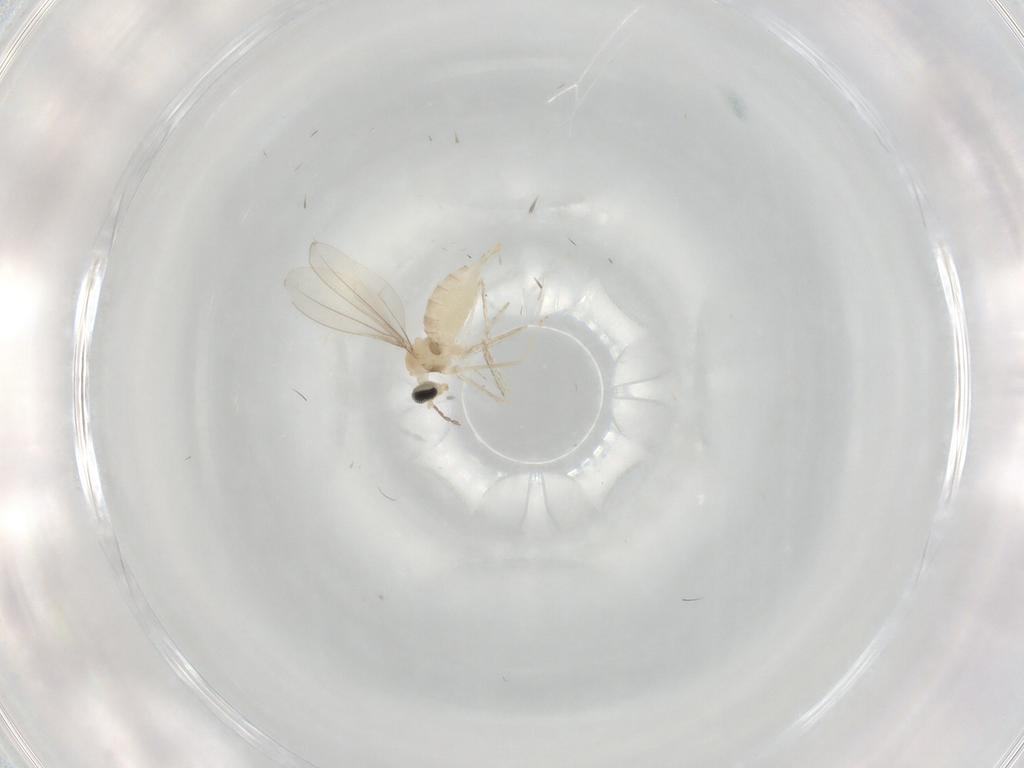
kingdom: Animalia
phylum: Arthropoda
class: Insecta
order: Diptera
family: Cecidomyiidae
